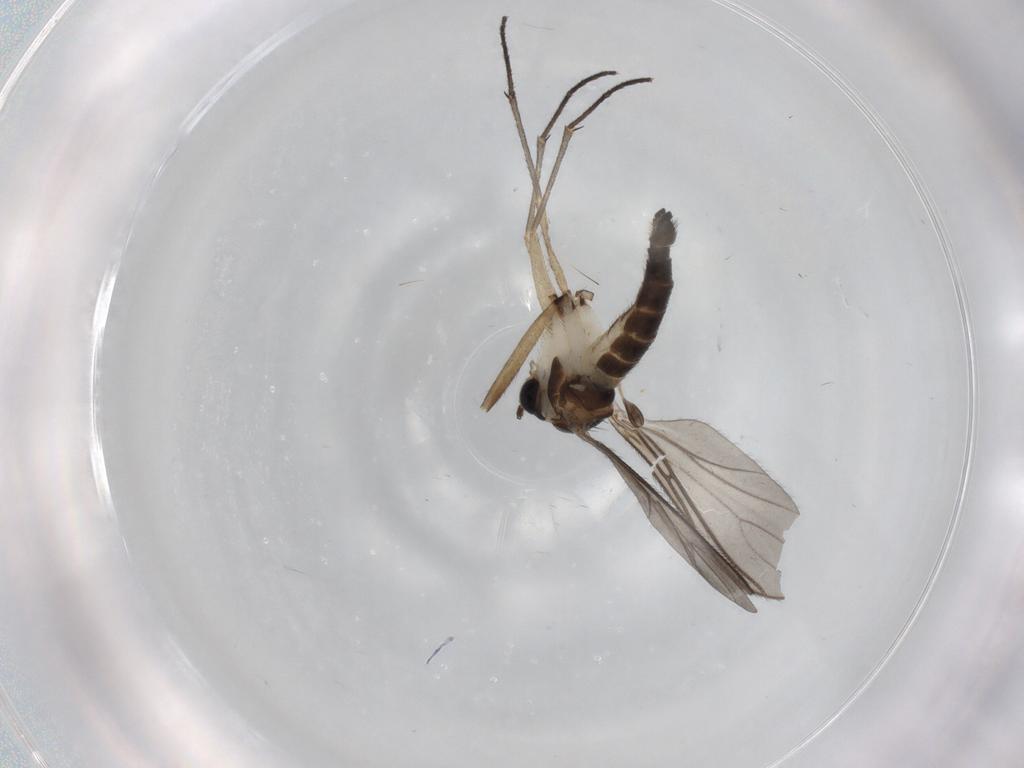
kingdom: Animalia
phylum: Arthropoda
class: Insecta
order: Diptera
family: Sciaridae
